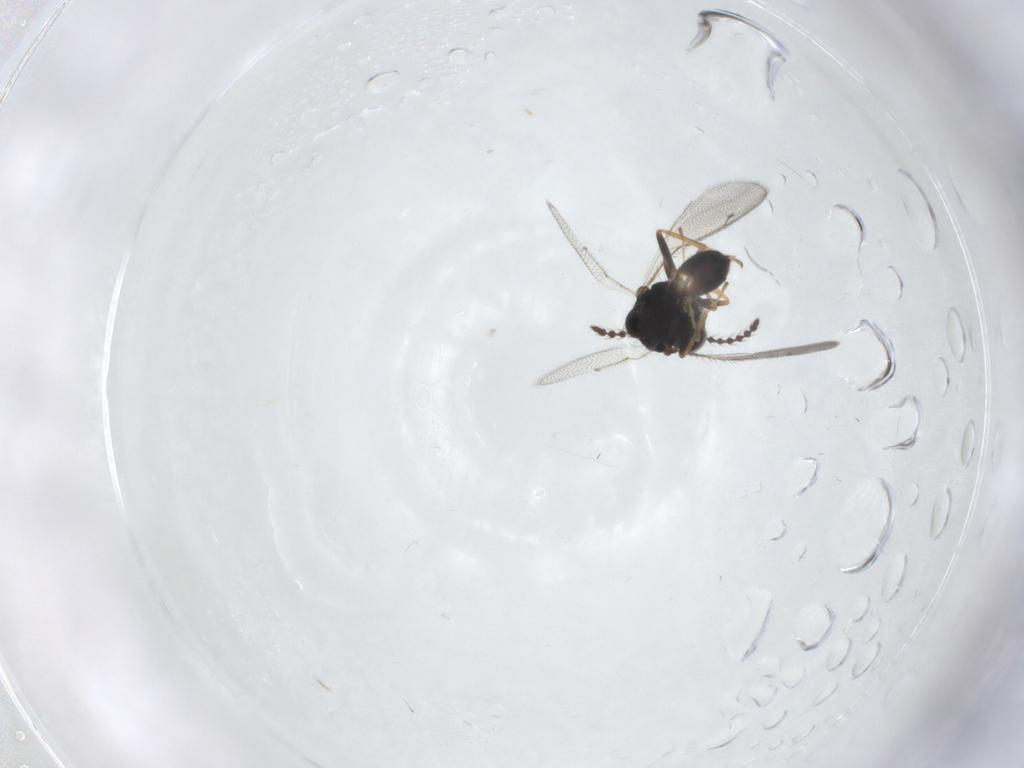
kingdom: Animalia
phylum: Arthropoda
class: Insecta
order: Hymenoptera
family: Pteromalidae
